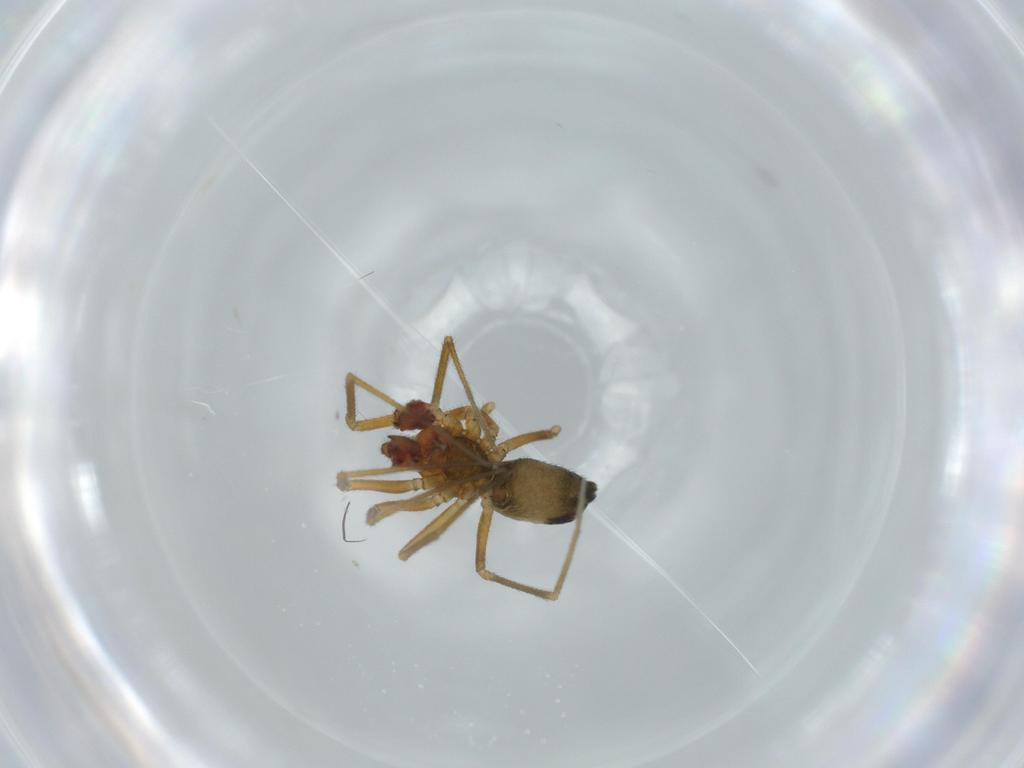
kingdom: Animalia
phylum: Arthropoda
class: Arachnida
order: Araneae
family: Linyphiidae
